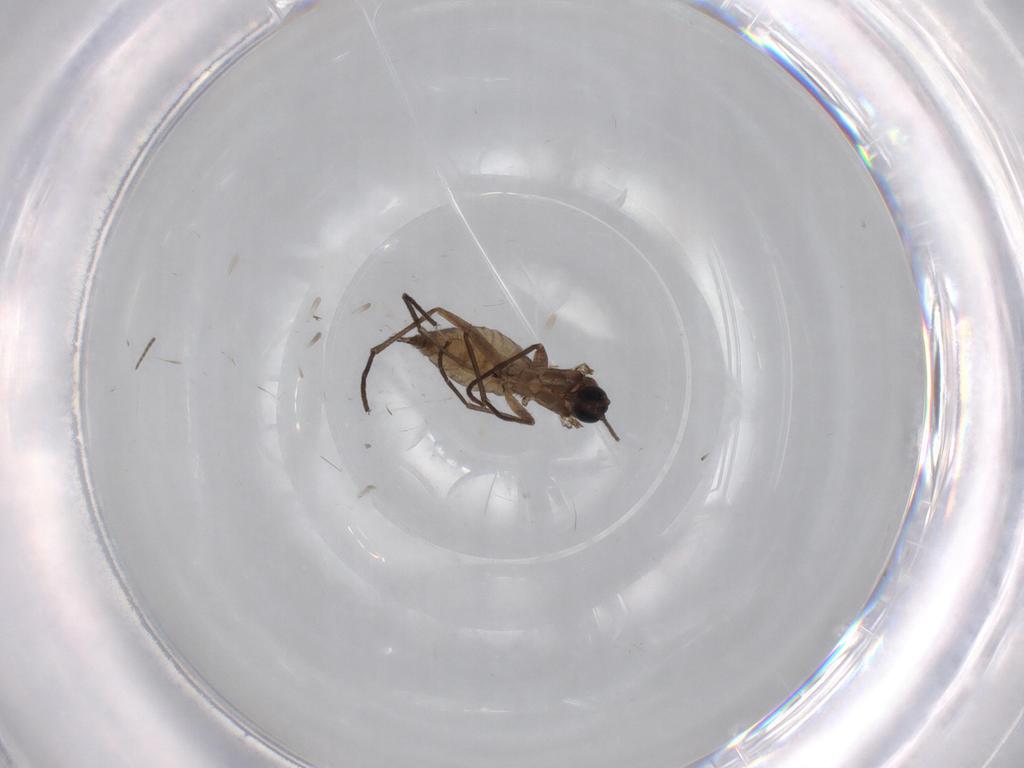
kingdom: Animalia
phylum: Arthropoda
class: Insecta
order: Diptera
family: Sciaridae
